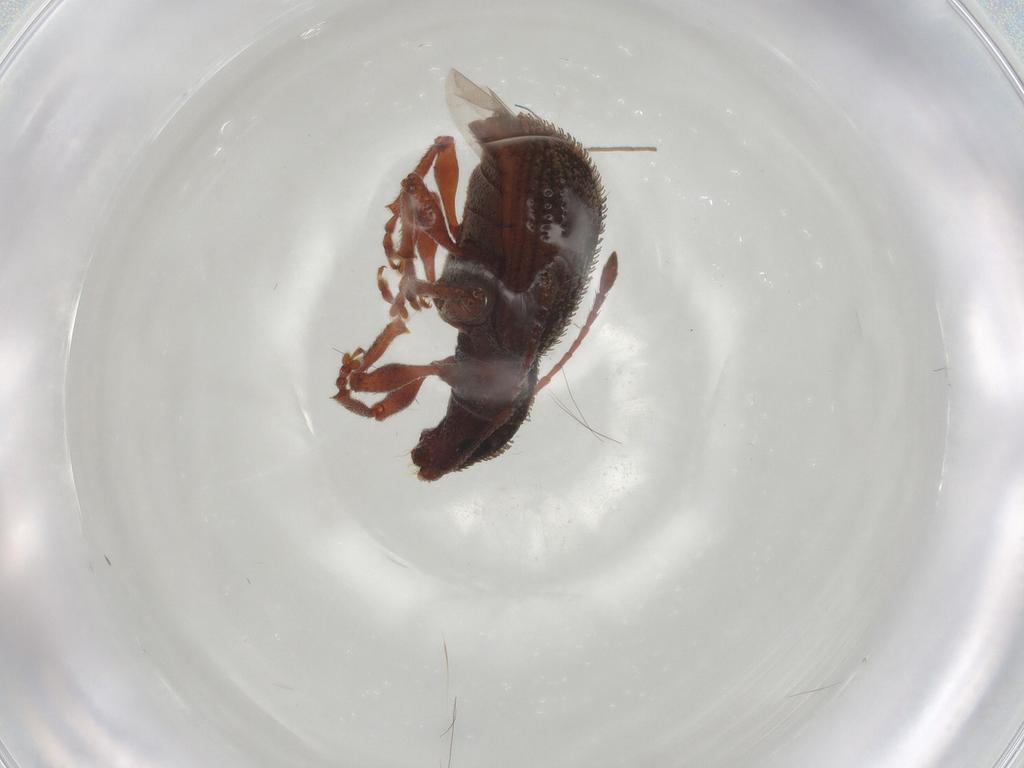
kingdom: Animalia
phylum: Arthropoda
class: Insecta
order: Coleoptera
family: Curculionidae
